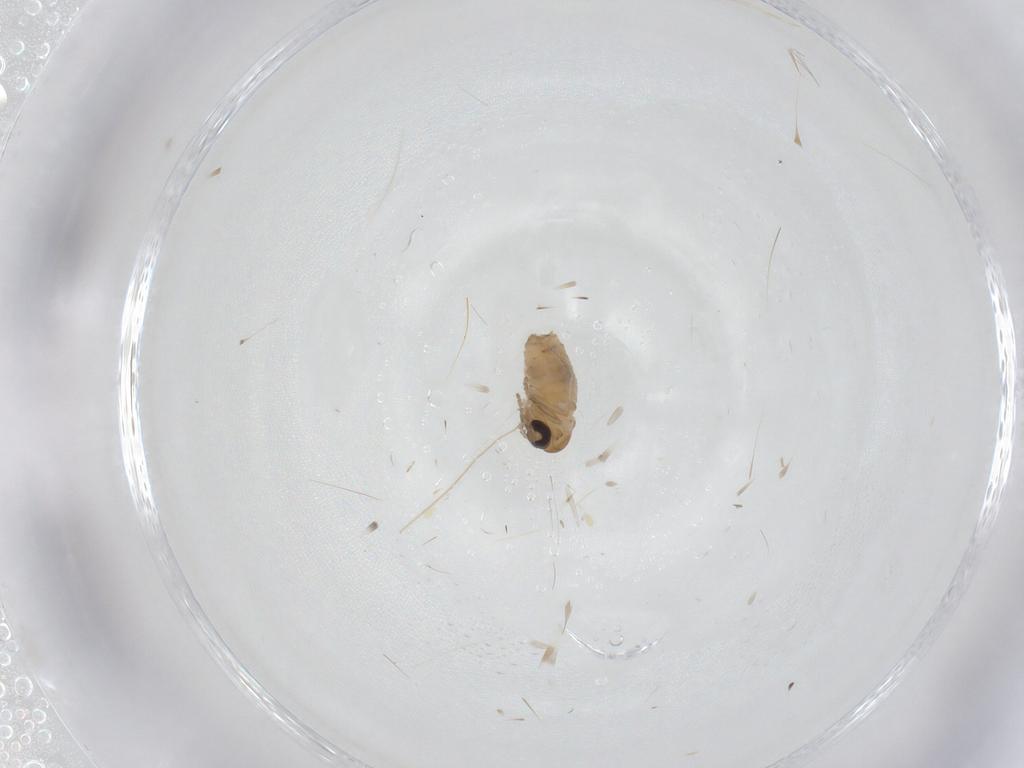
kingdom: Animalia
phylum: Arthropoda
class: Insecta
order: Diptera
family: Psychodidae
